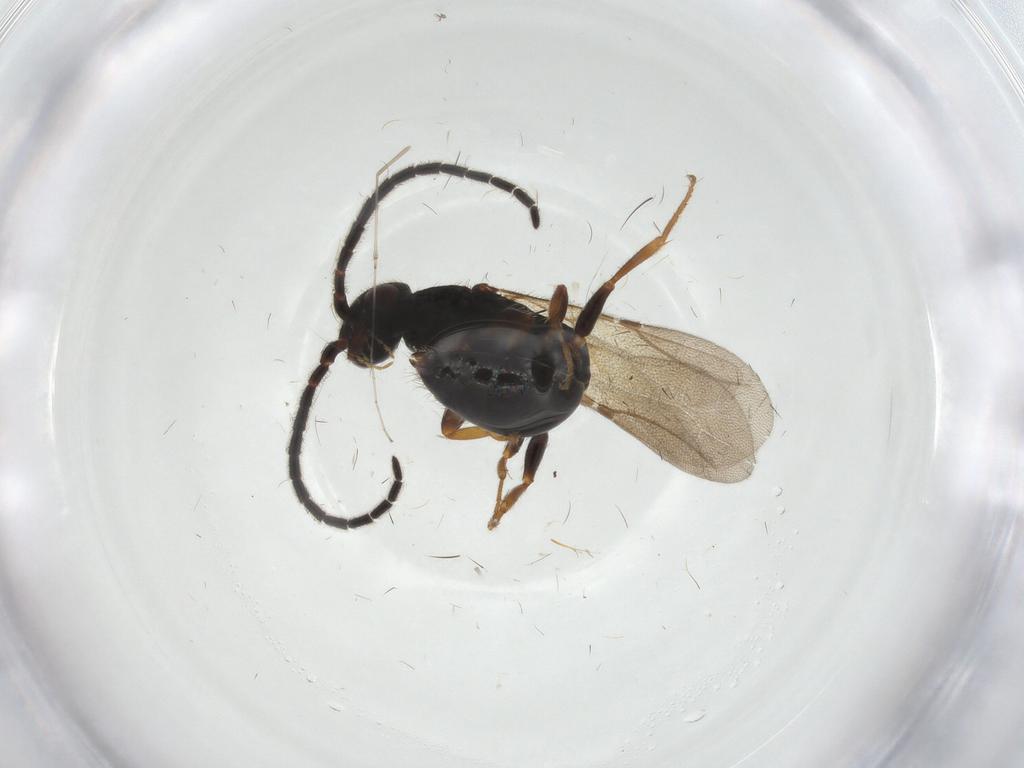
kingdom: Animalia
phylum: Arthropoda
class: Insecta
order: Hymenoptera
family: Bethylidae
